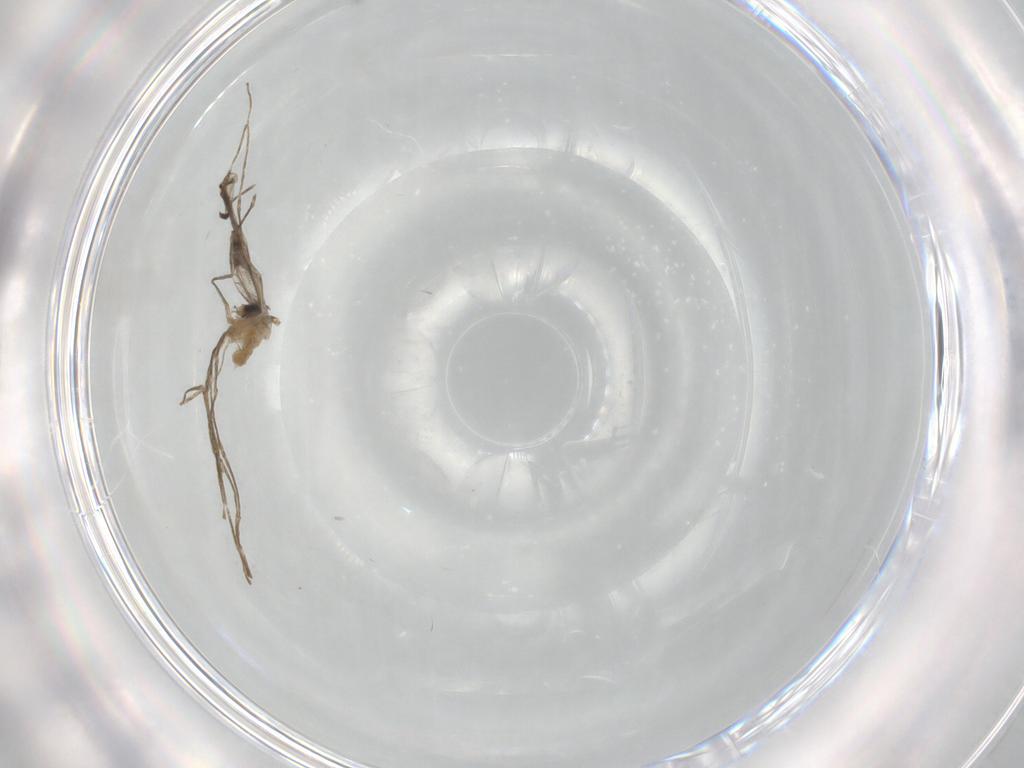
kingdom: Animalia
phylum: Arthropoda
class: Insecta
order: Diptera
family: Cecidomyiidae
